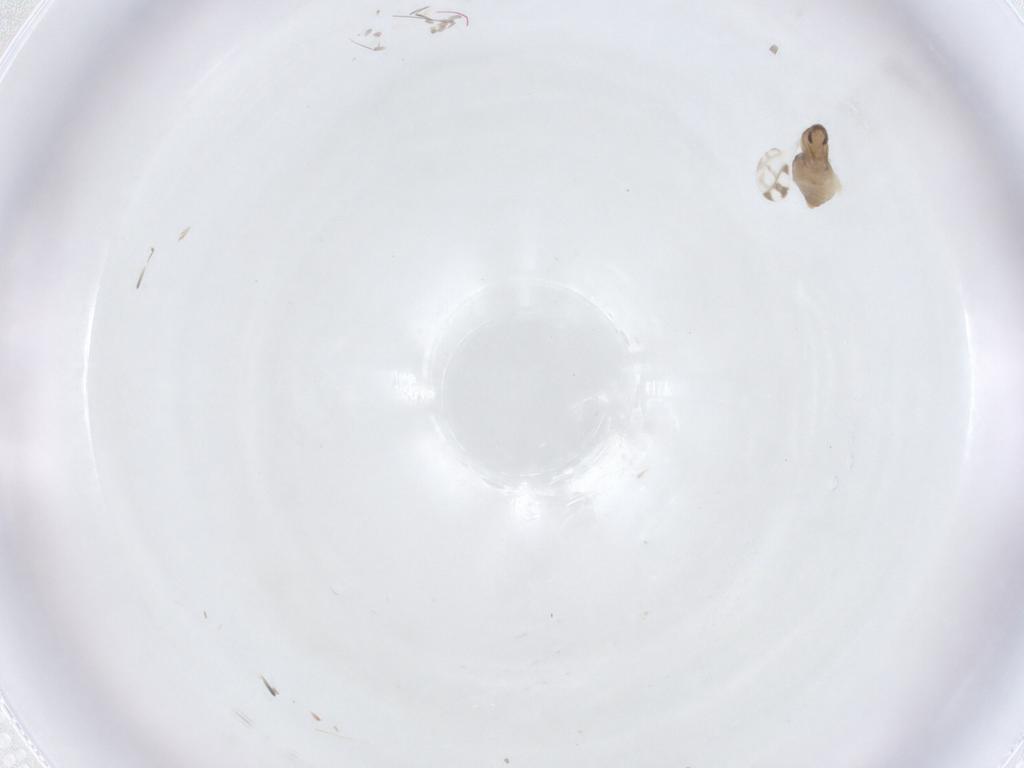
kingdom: Animalia
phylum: Arthropoda
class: Insecta
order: Diptera
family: Cecidomyiidae
